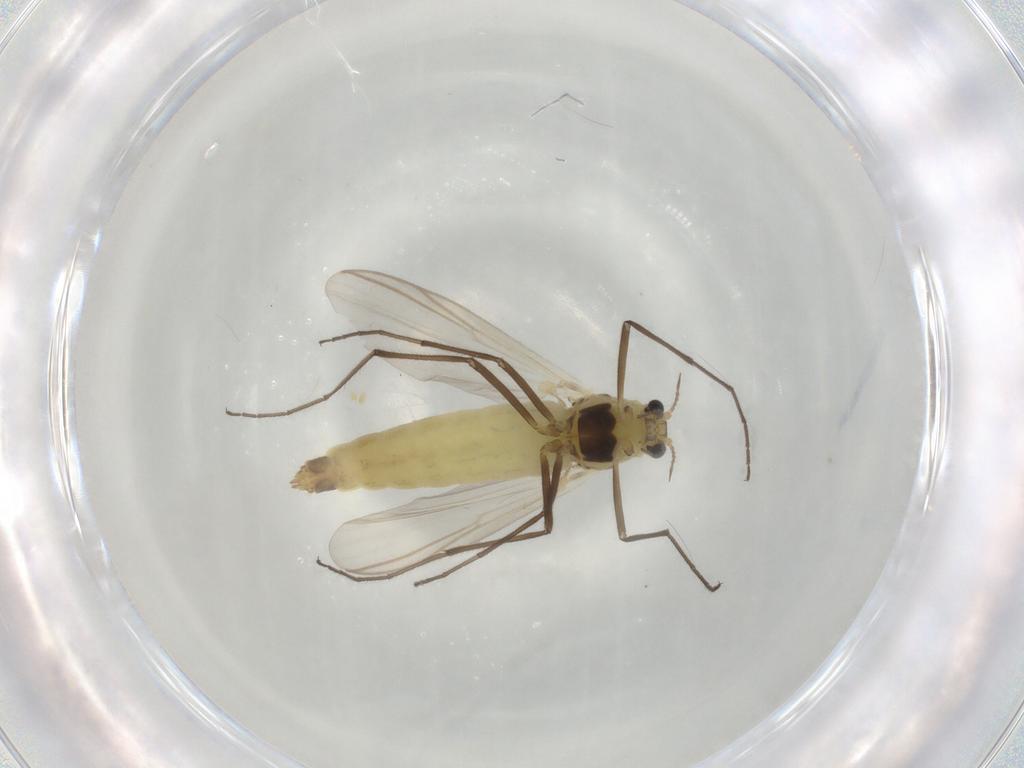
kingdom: Animalia
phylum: Arthropoda
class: Insecta
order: Diptera
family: Chironomidae
